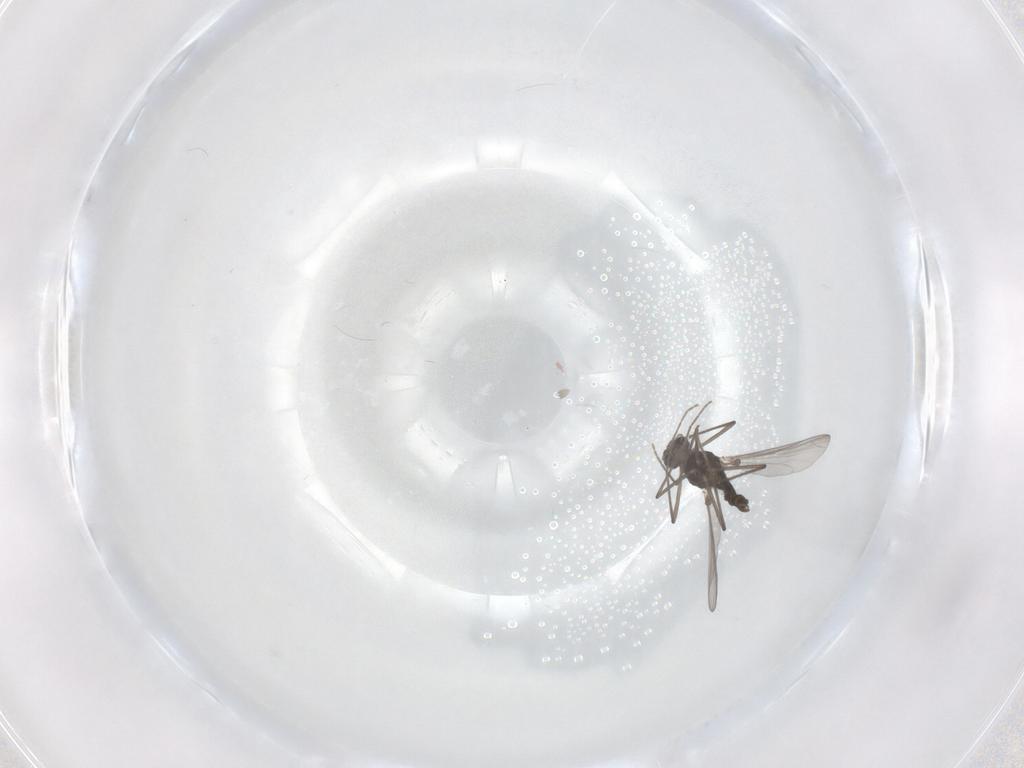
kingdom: Animalia
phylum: Arthropoda
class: Insecta
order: Diptera
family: Chironomidae
